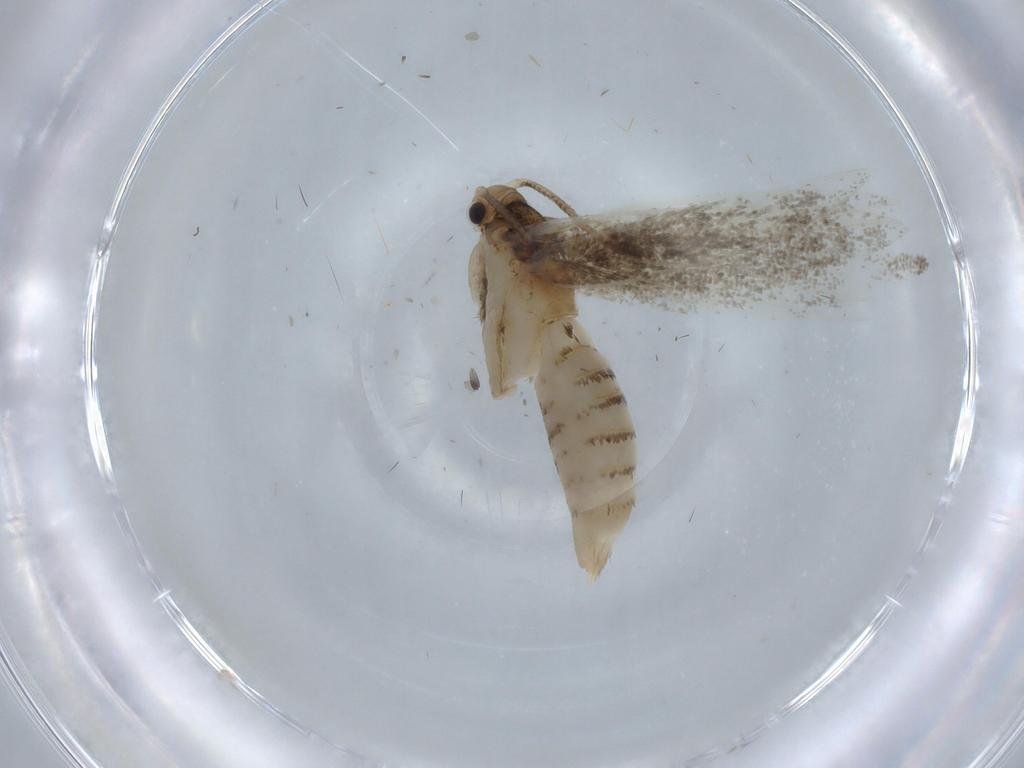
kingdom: Animalia
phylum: Arthropoda
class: Insecta
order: Lepidoptera
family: Tineidae
